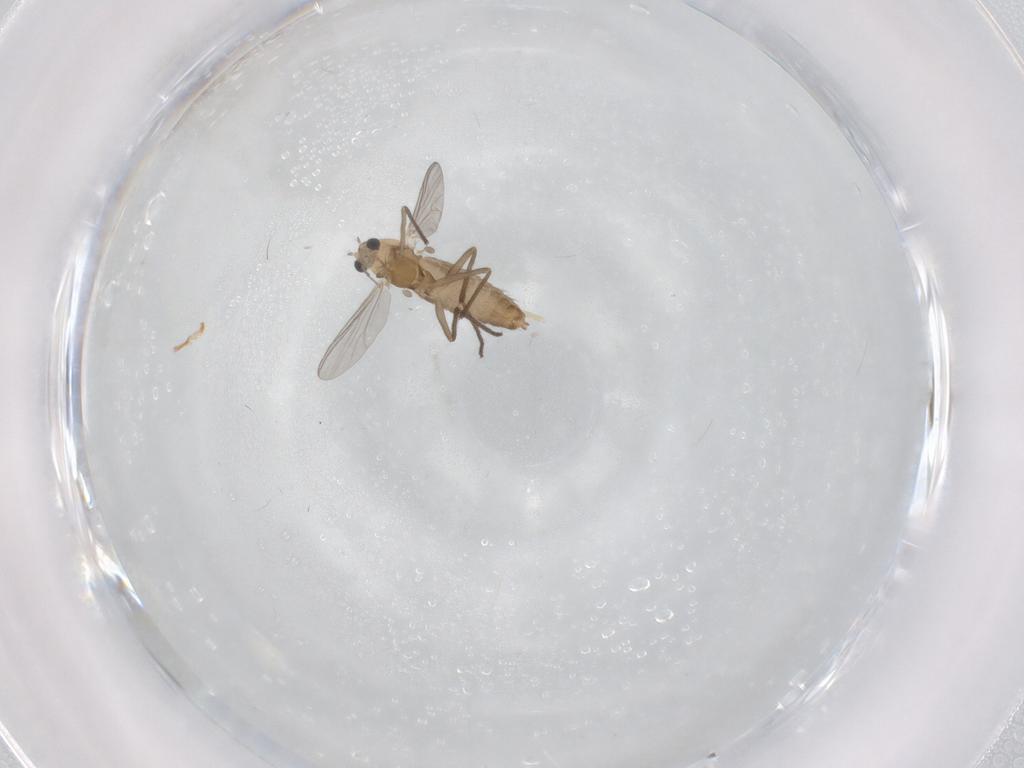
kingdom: Animalia
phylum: Arthropoda
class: Insecta
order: Diptera
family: Chironomidae
